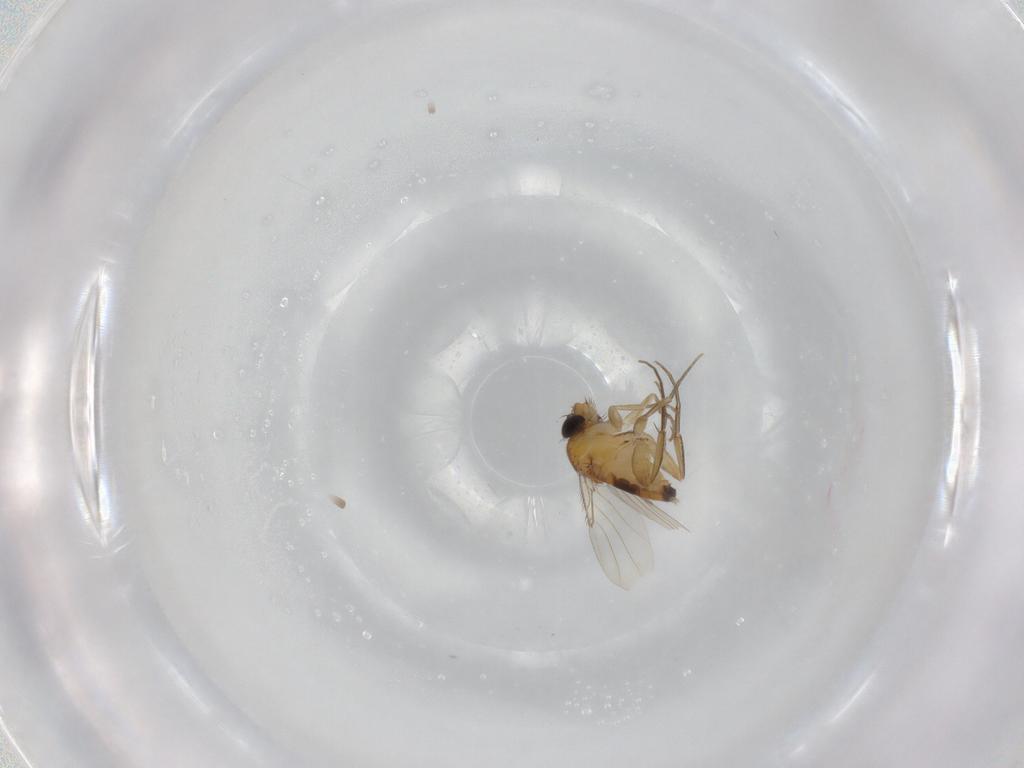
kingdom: Animalia
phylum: Arthropoda
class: Insecta
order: Diptera
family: Phoridae
